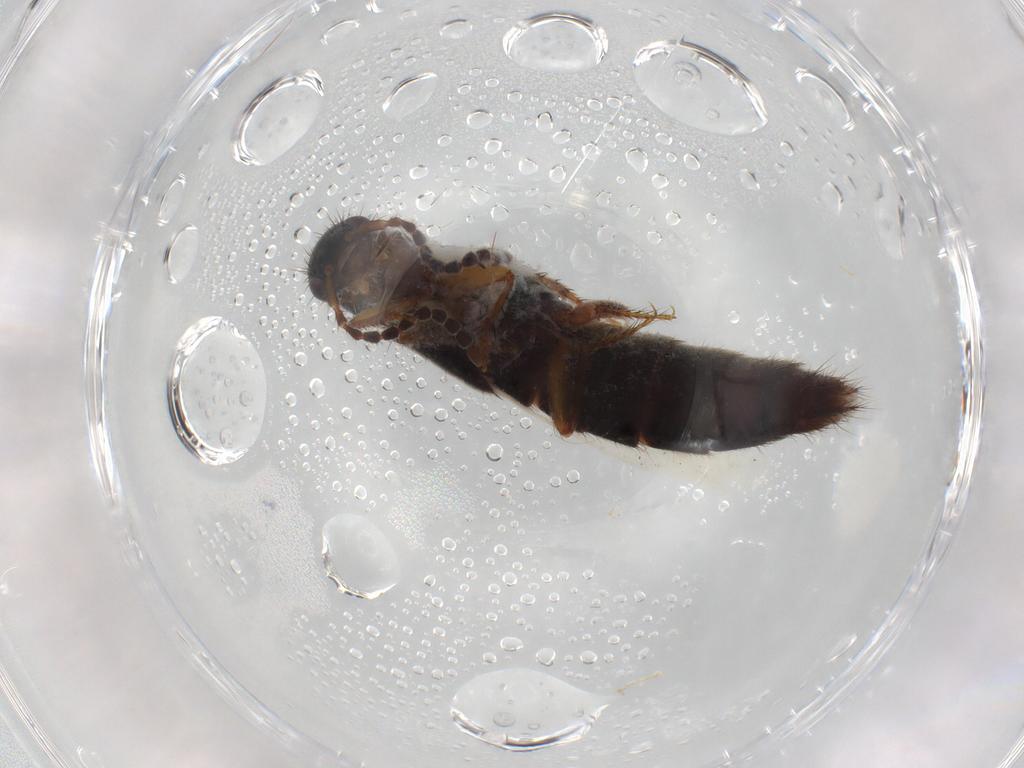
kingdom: Animalia
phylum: Arthropoda
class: Insecta
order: Coleoptera
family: Staphylinidae
